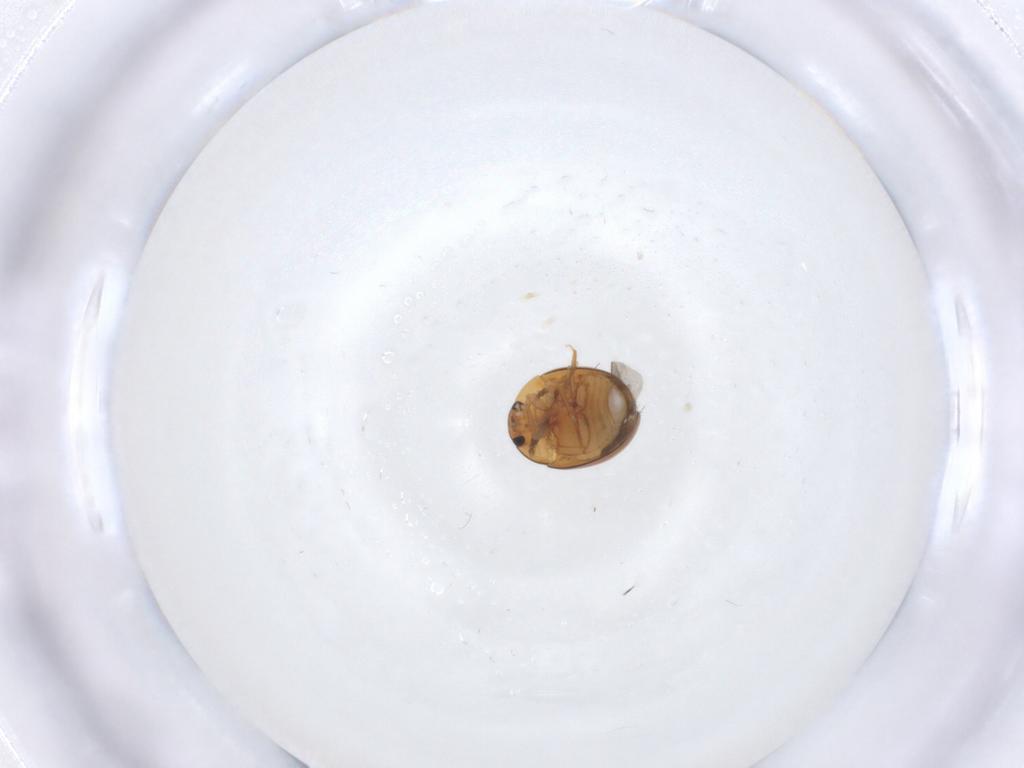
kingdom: Animalia
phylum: Arthropoda
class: Insecta
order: Coleoptera
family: Phalacridae
